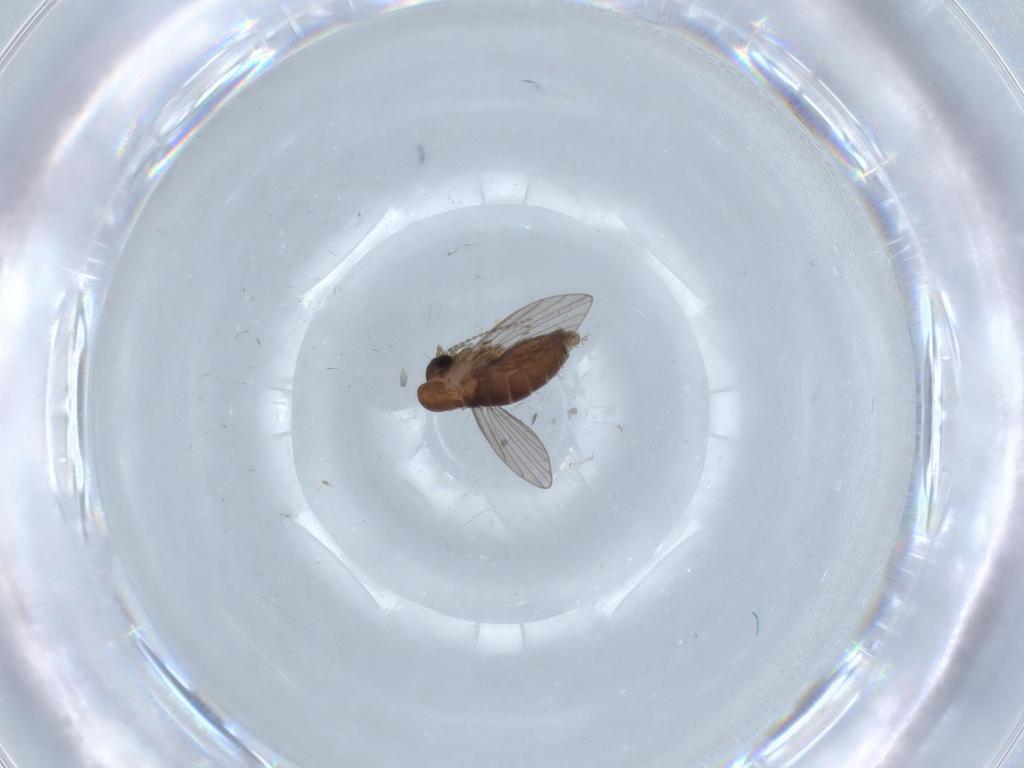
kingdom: Animalia
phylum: Arthropoda
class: Insecta
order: Diptera
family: Psychodidae
